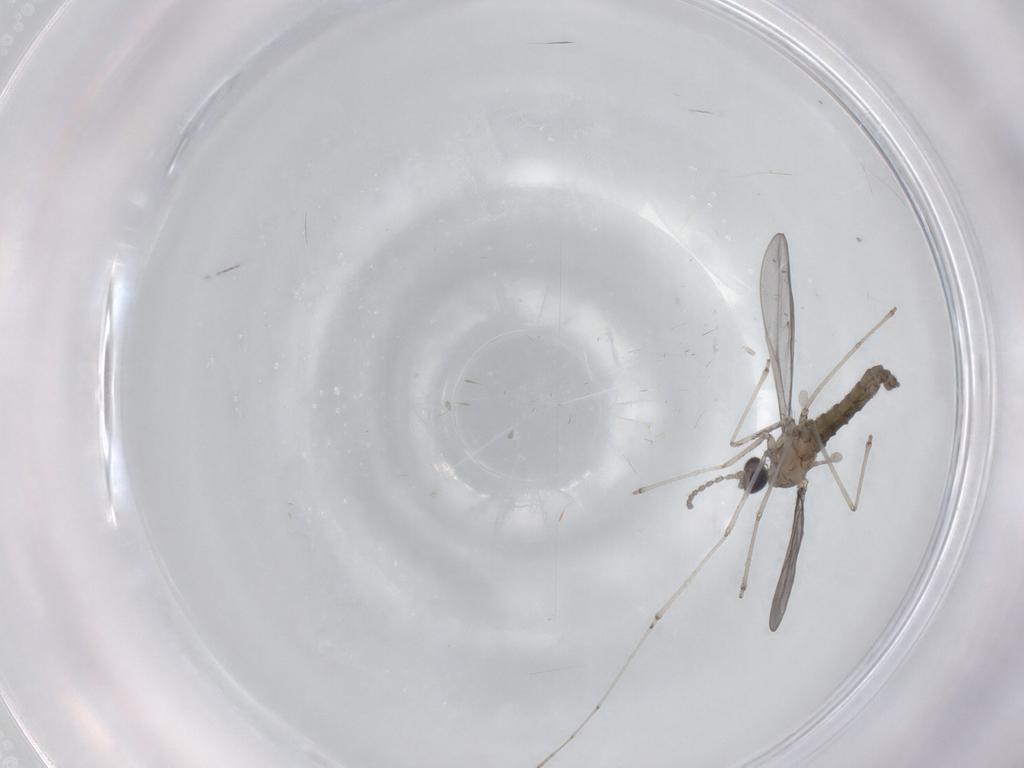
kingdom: Animalia
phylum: Arthropoda
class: Insecta
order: Diptera
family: Cecidomyiidae
